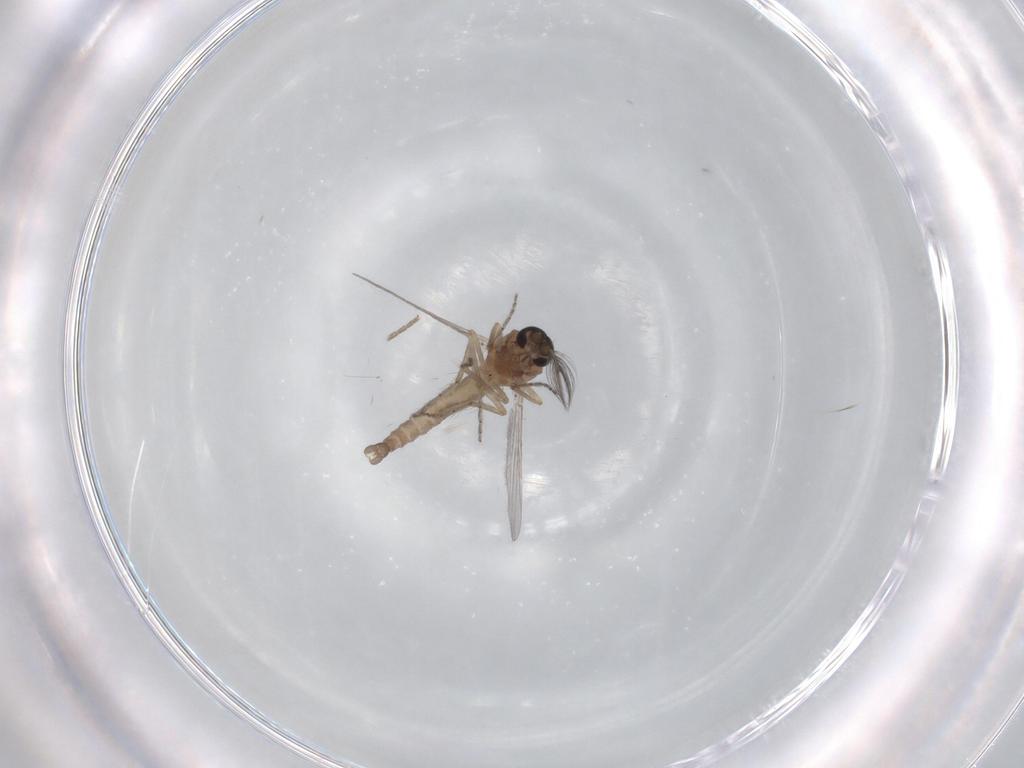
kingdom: Animalia
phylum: Arthropoda
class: Insecta
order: Diptera
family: Ceratopogonidae
